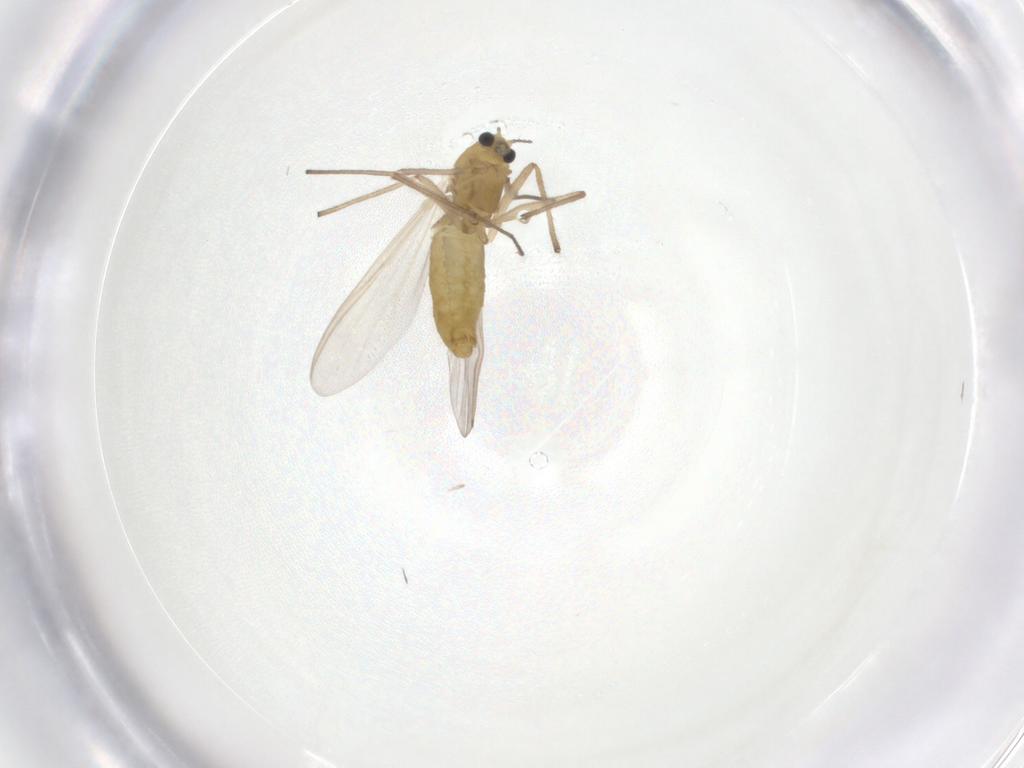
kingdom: Animalia
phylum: Arthropoda
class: Insecta
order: Diptera
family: Chironomidae
